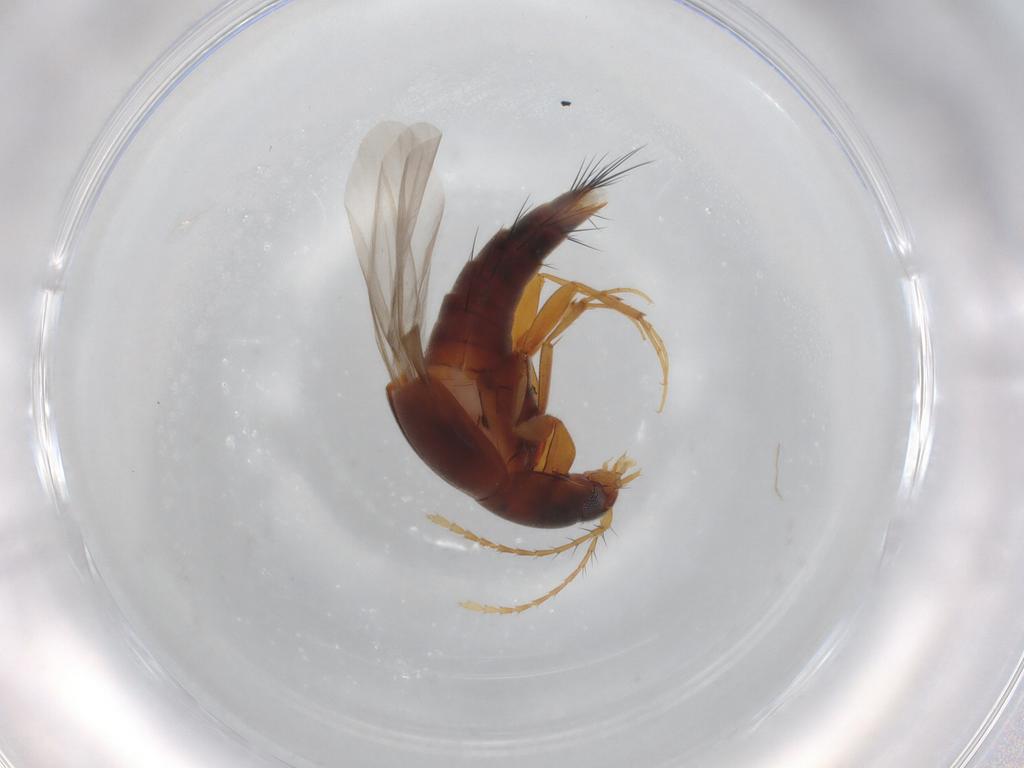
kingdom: Animalia
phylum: Arthropoda
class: Insecta
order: Coleoptera
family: Staphylinidae
